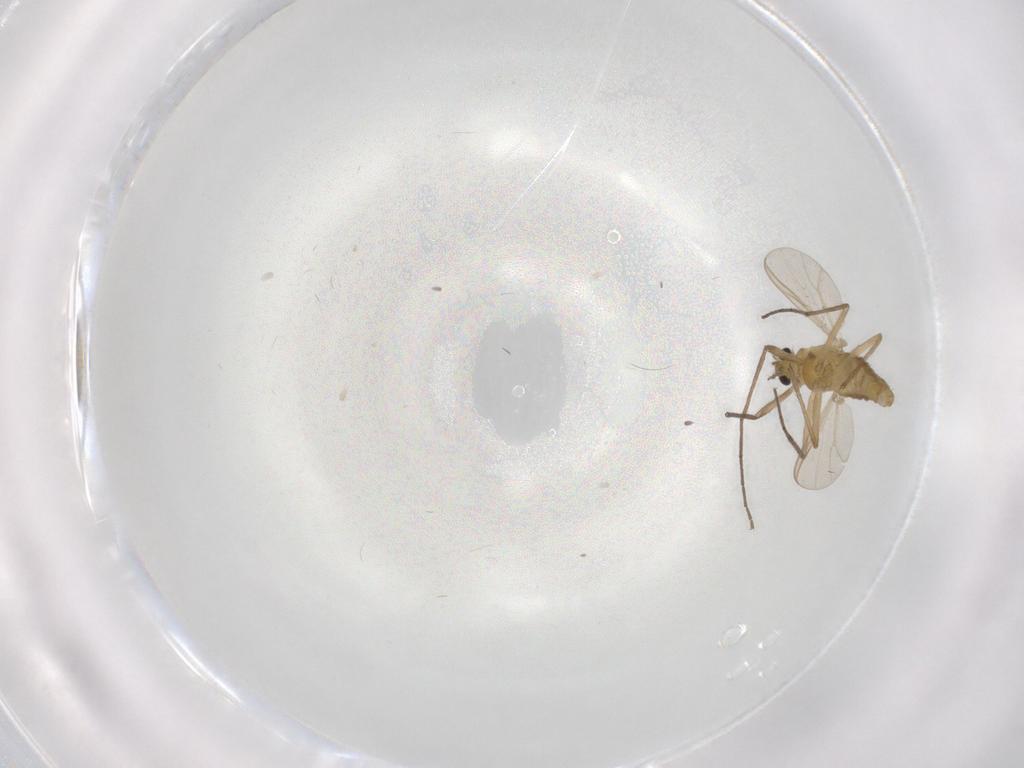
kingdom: Animalia
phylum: Arthropoda
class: Insecta
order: Diptera
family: Scatopsidae
